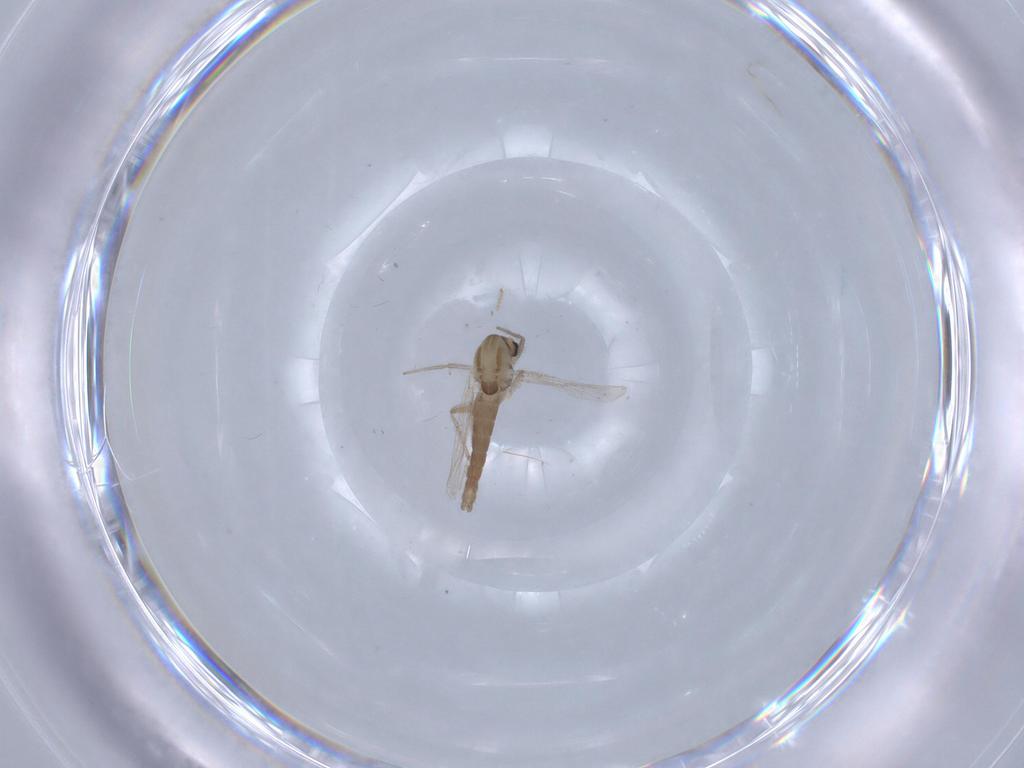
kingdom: Animalia
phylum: Arthropoda
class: Insecta
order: Diptera
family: Chironomidae
